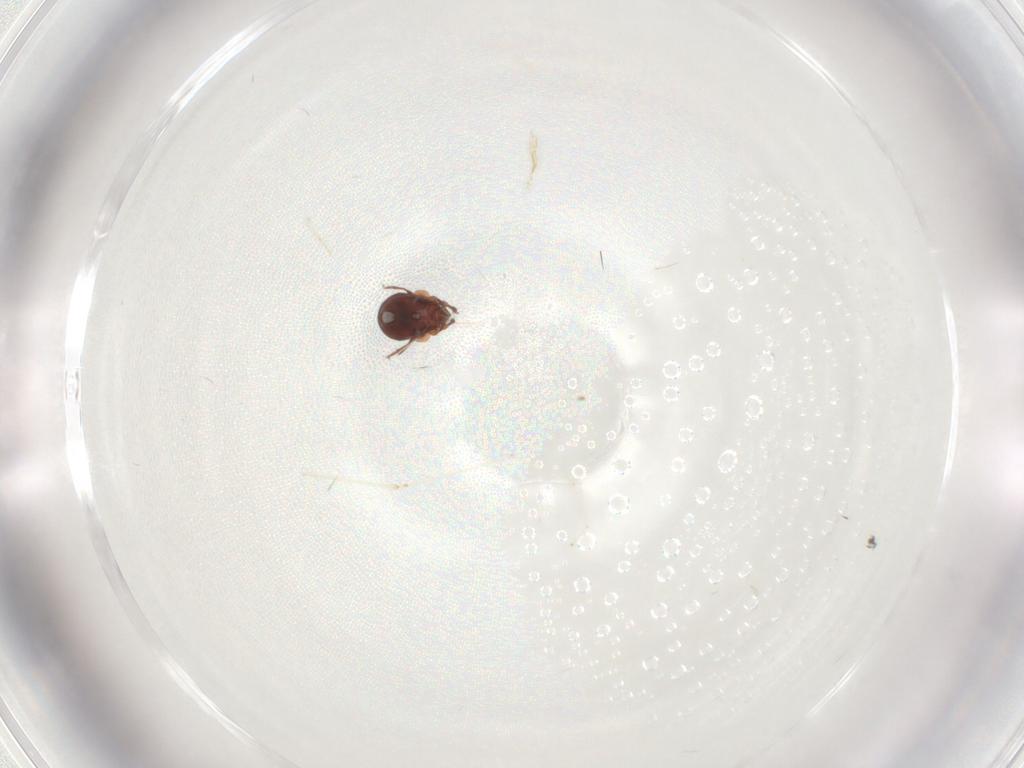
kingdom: Animalia
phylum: Arthropoda
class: Arachnida
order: Sarcoptiformes
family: Humerobatidae
